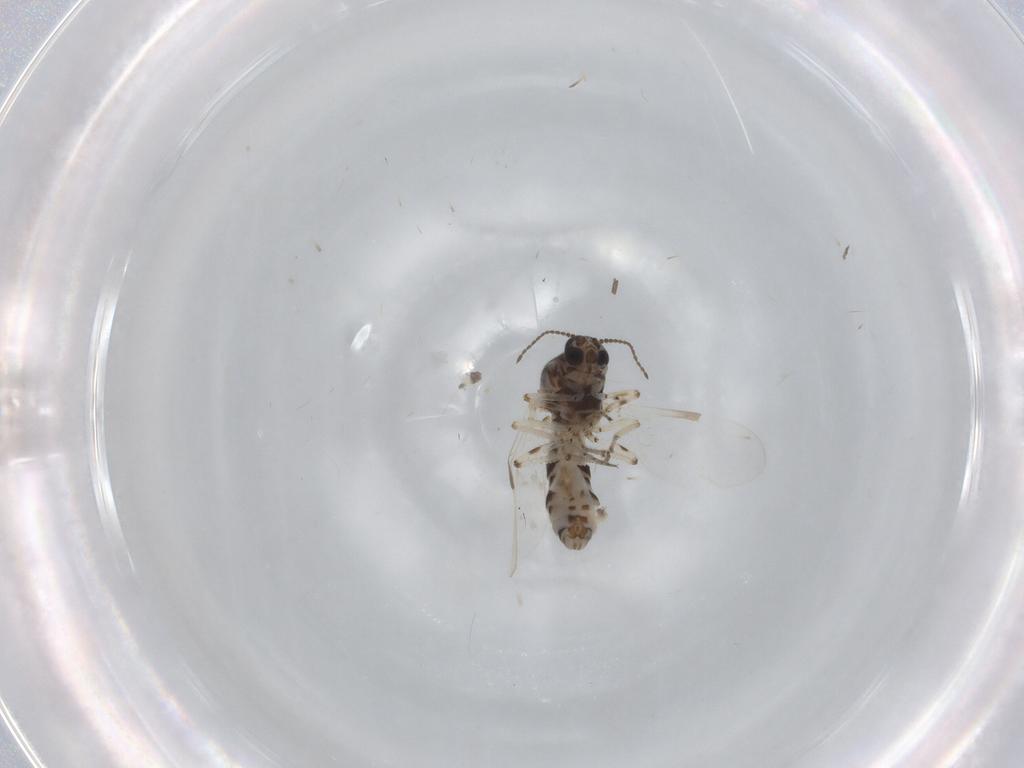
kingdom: Animalia
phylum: Arthropoda
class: Insecta
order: Diptera
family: Ceratopogonidae
